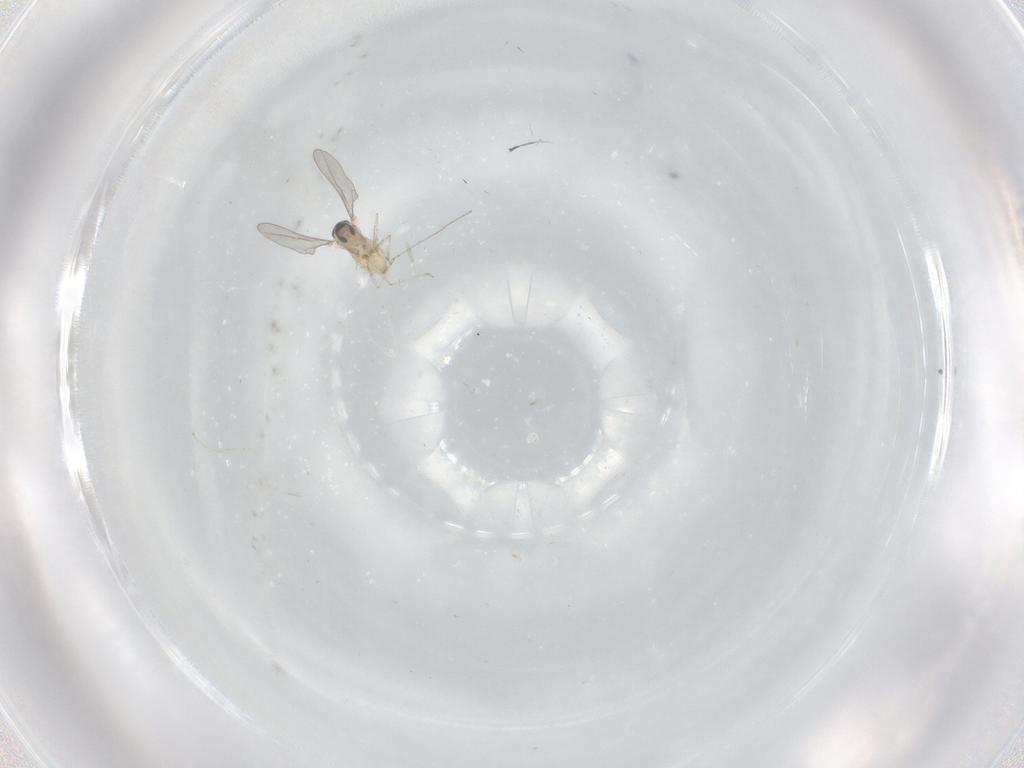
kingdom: Animalia
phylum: Arthropoda
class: Insecta
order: Diptera
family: Cecidomyiidae
